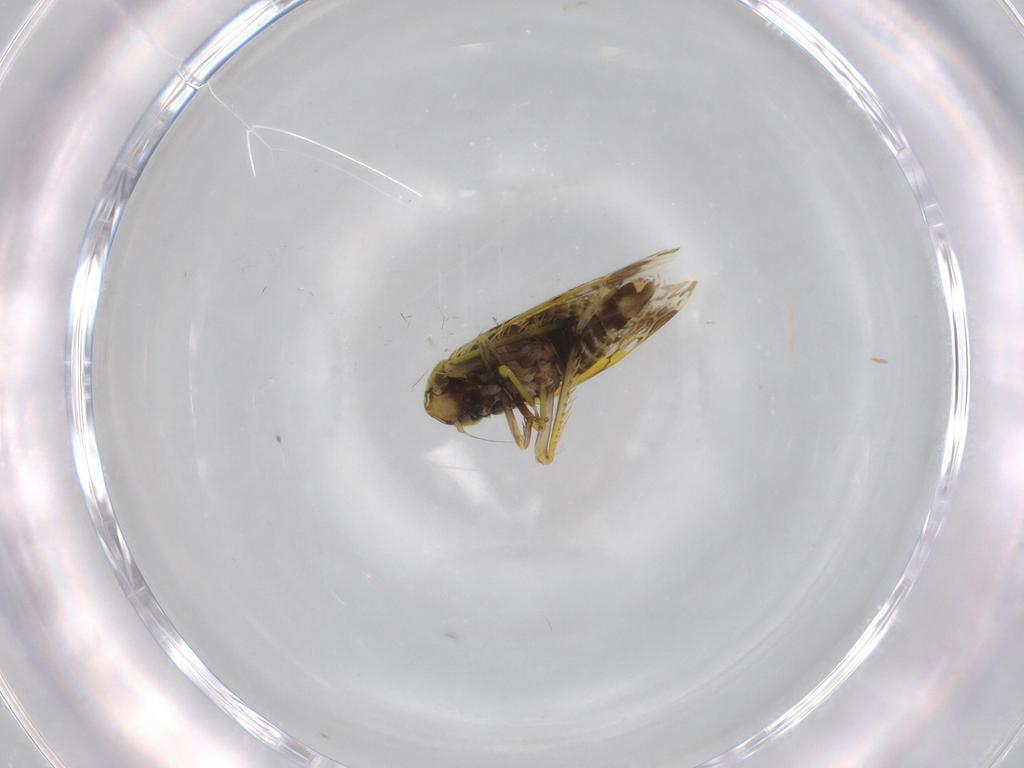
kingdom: Animalia
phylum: Arthropoda
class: Insecta
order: Hemiptera
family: Cicadellidae
